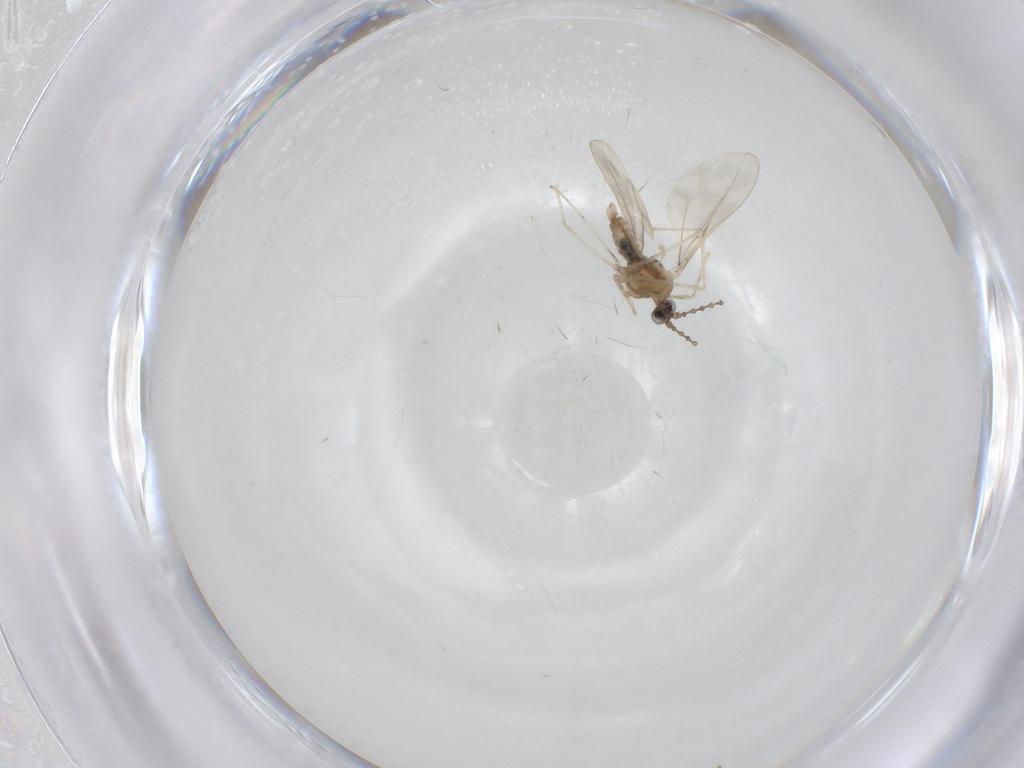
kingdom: Animalia
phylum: Arthropoda
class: Insecta
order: Diptera
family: Cecidomyiidae
